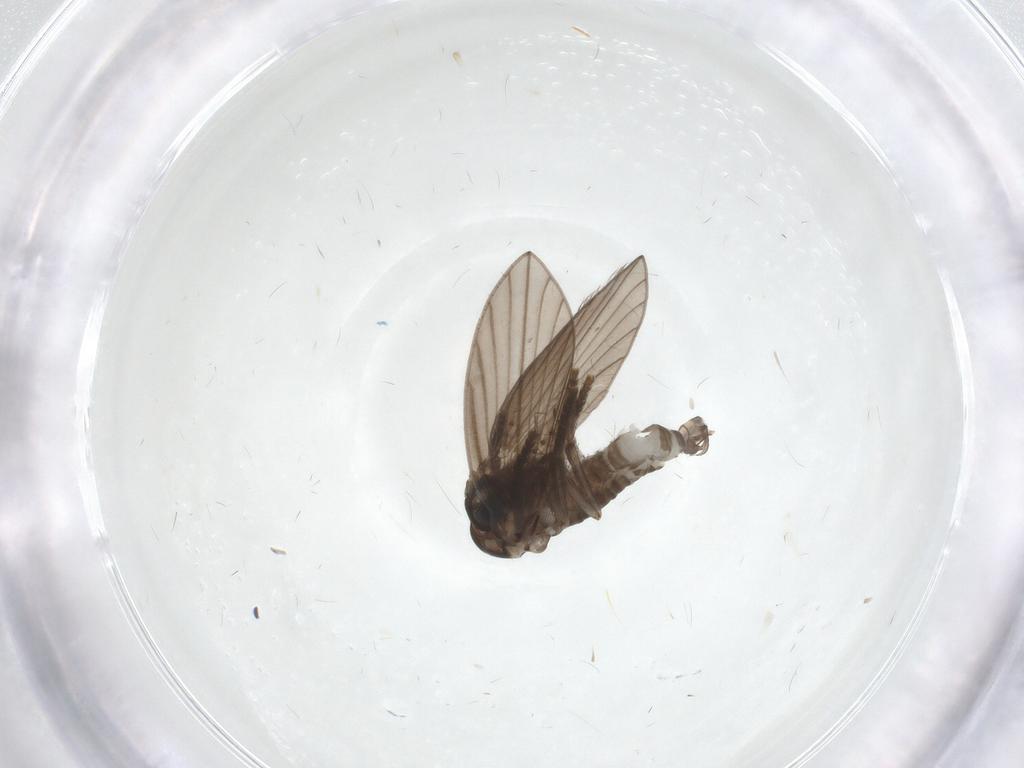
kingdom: Animalia
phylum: Arthropoda
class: Insecta
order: Diptera
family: Psychodidae
